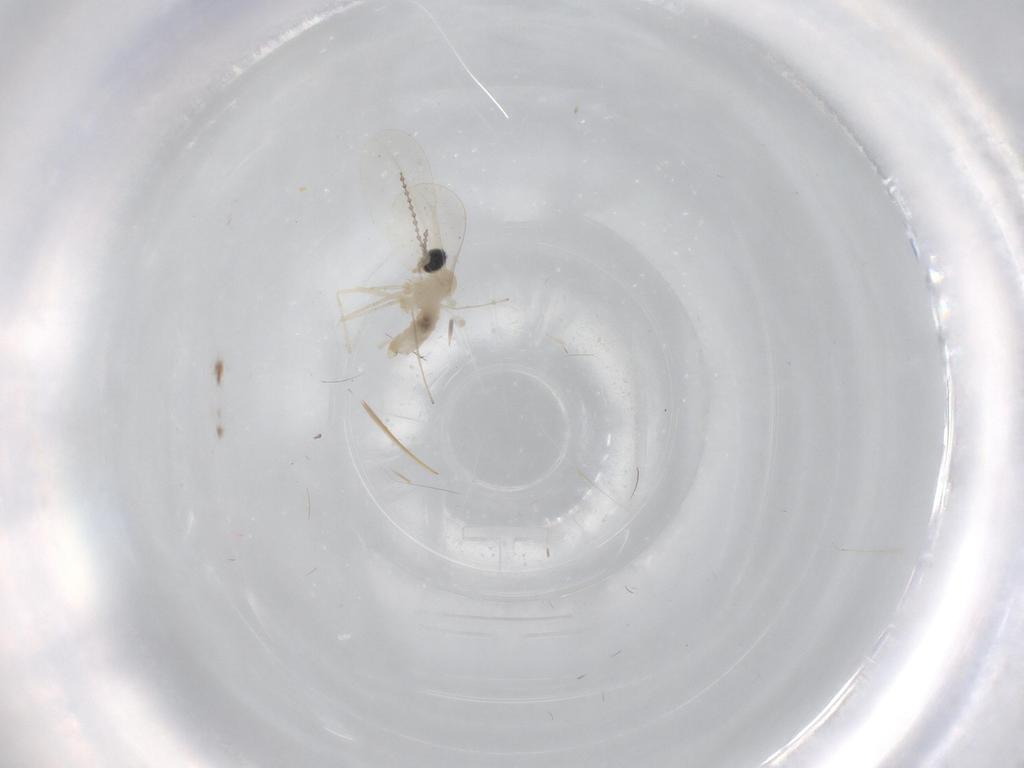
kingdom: Animalia
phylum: Arthropoda
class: Insecta
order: Diptera
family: Cecidomyiidae
